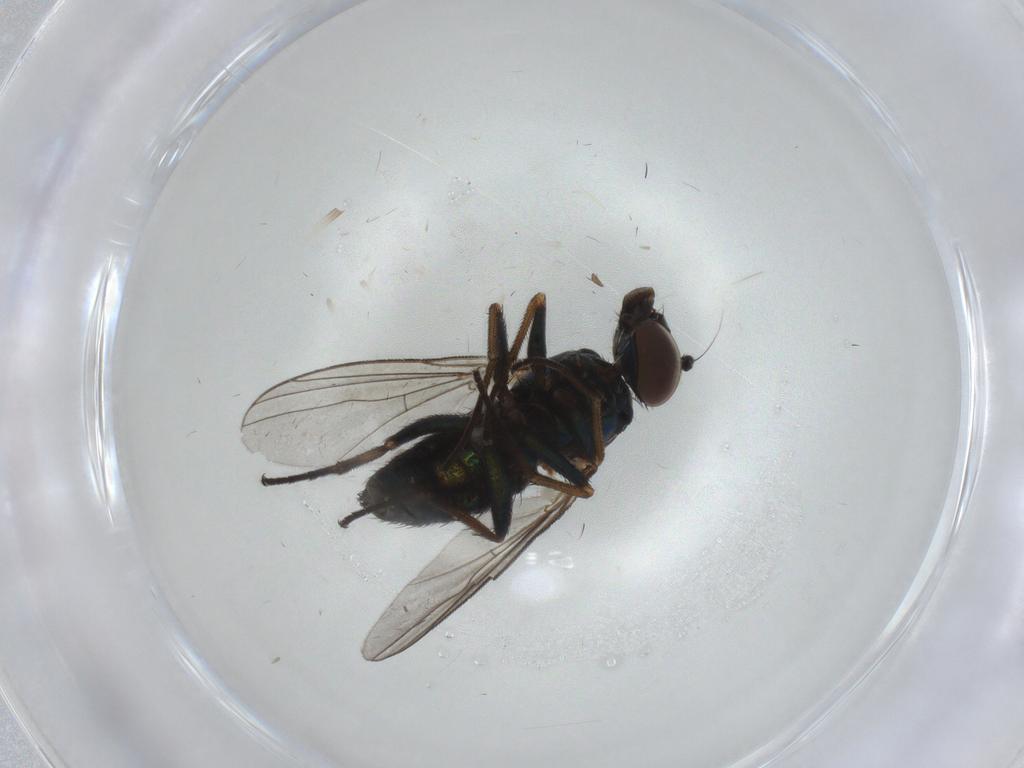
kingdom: Animalia
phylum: Arthropoda
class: Insecta
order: Diptera
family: Dolichopodidae
